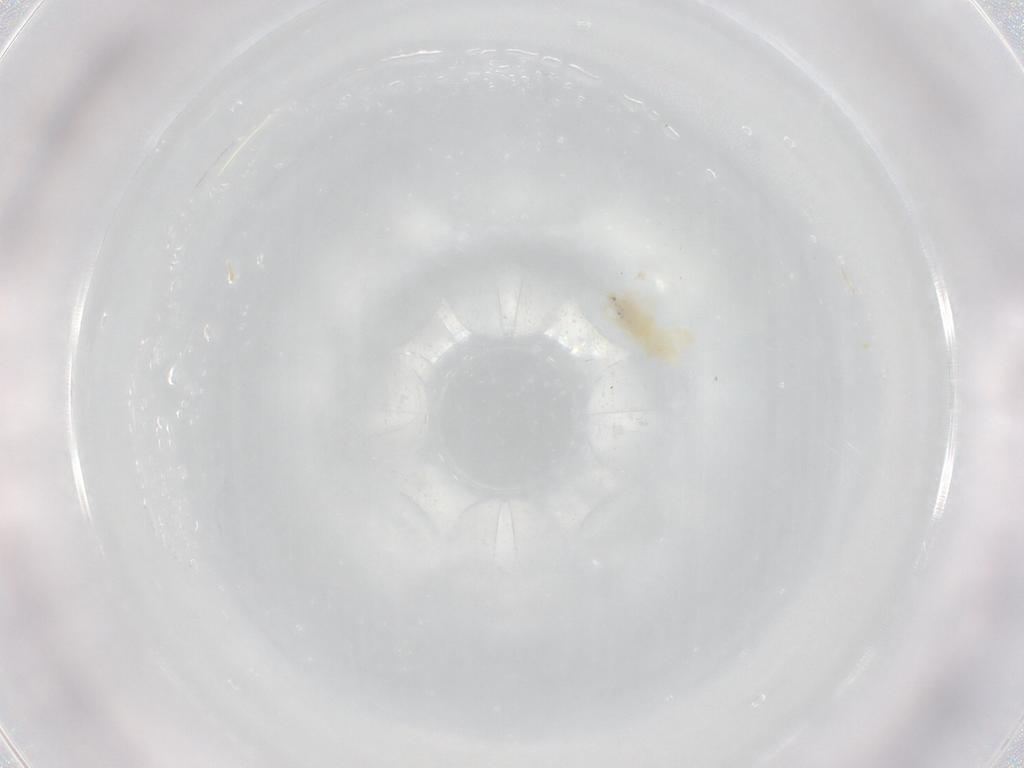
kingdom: Animalia
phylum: Arthropoda
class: Arachnida
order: Trombidiformes
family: Rhagidiidae
